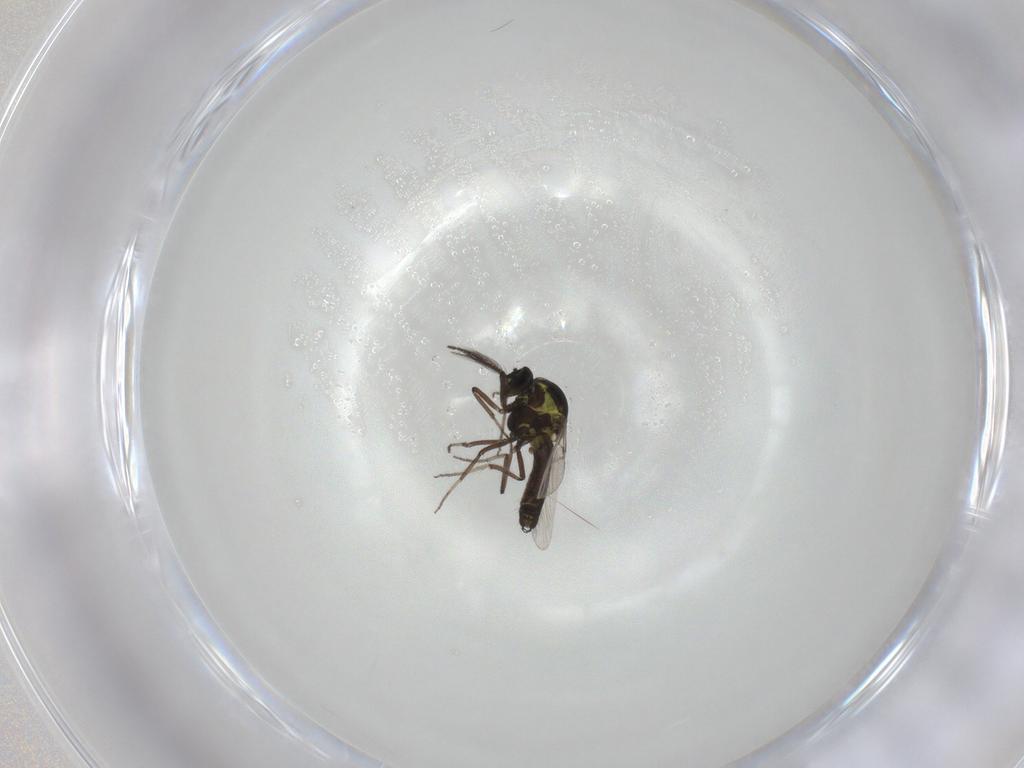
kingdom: Animalia
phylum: Arthropoda
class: Insecta
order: Diptera
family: Ceratopogonidae
